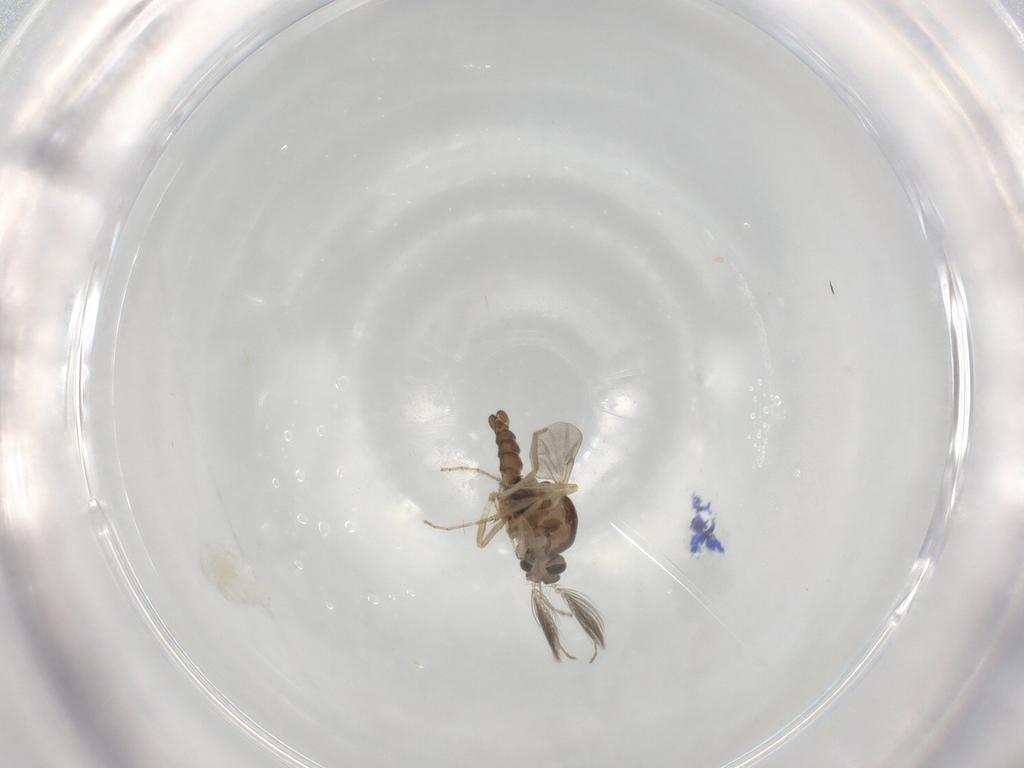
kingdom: Animalia
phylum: Arthropoda
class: Insecta
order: Diptera
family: Ceratopogonidae
